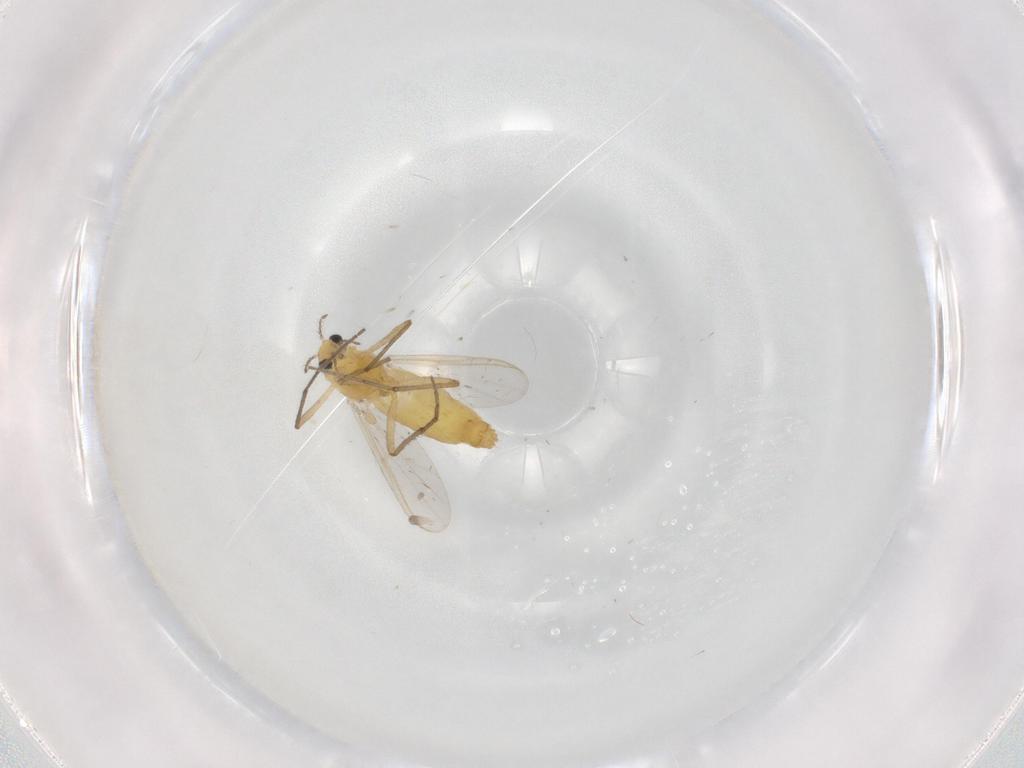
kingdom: Animalia
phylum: Arthropoda
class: Insecta
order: Diptera
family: Chironomidae
